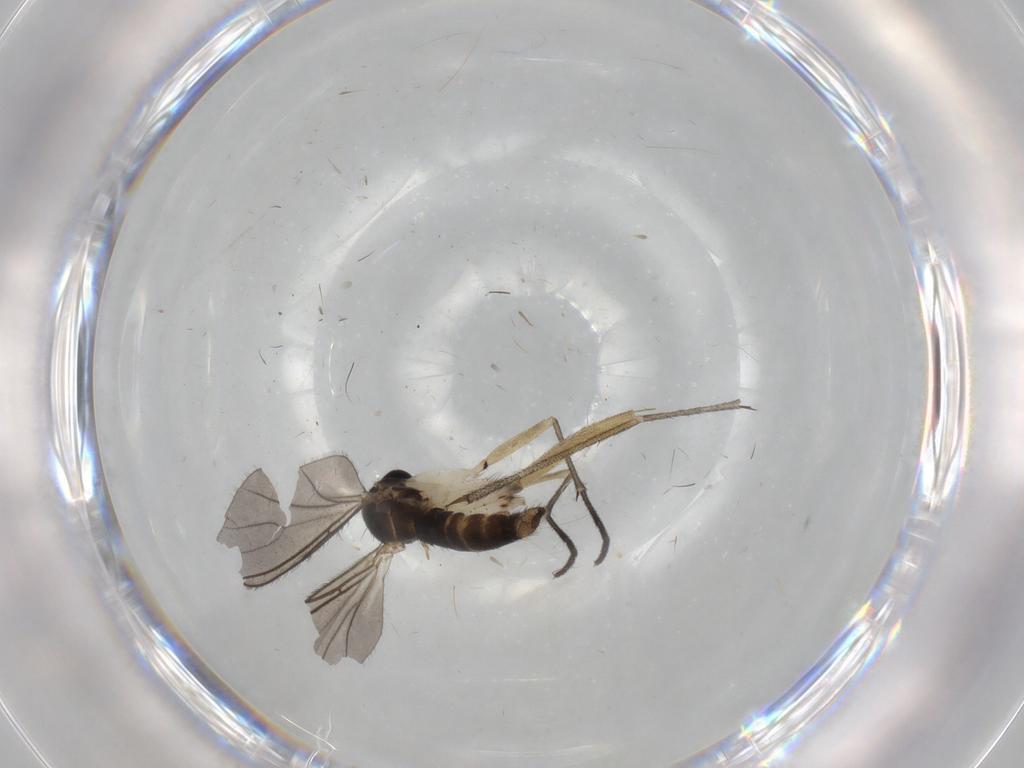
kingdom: Animalia
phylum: Arthropoda
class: Insecta
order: Diptera
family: Sciaridae
